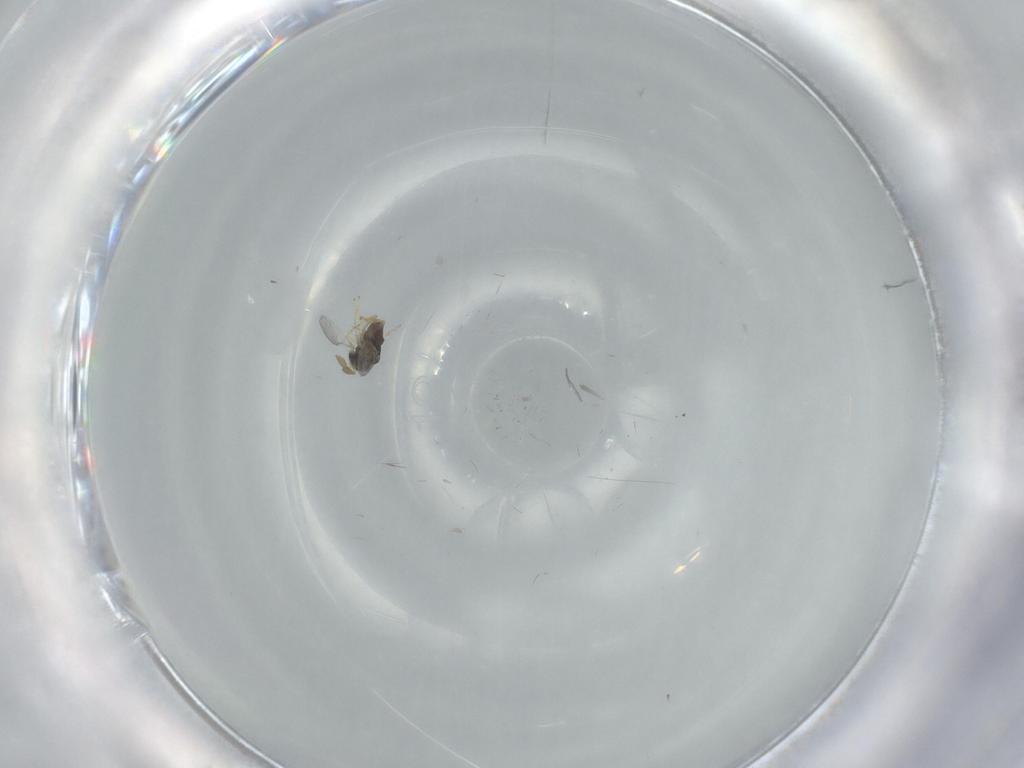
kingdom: Animalia
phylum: Arthropoda
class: Insecta
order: Hymenoptera
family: Encyrtidae
